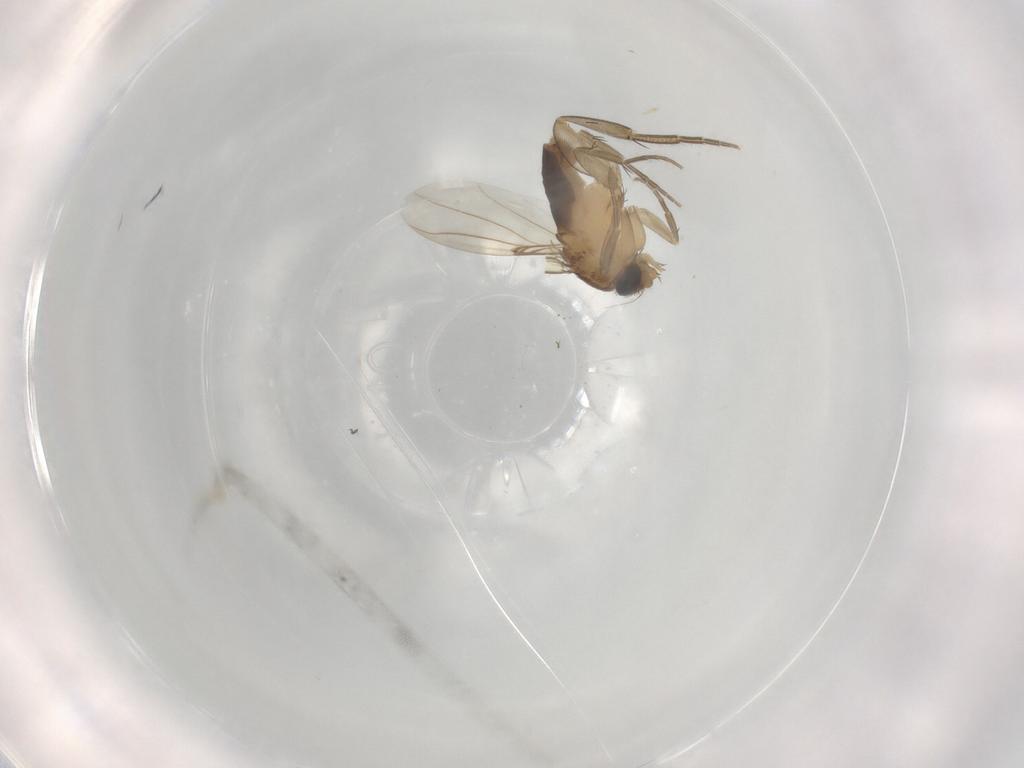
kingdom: Animalia
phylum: Arthropoda
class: Insecta
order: Diptera
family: Phoridae
